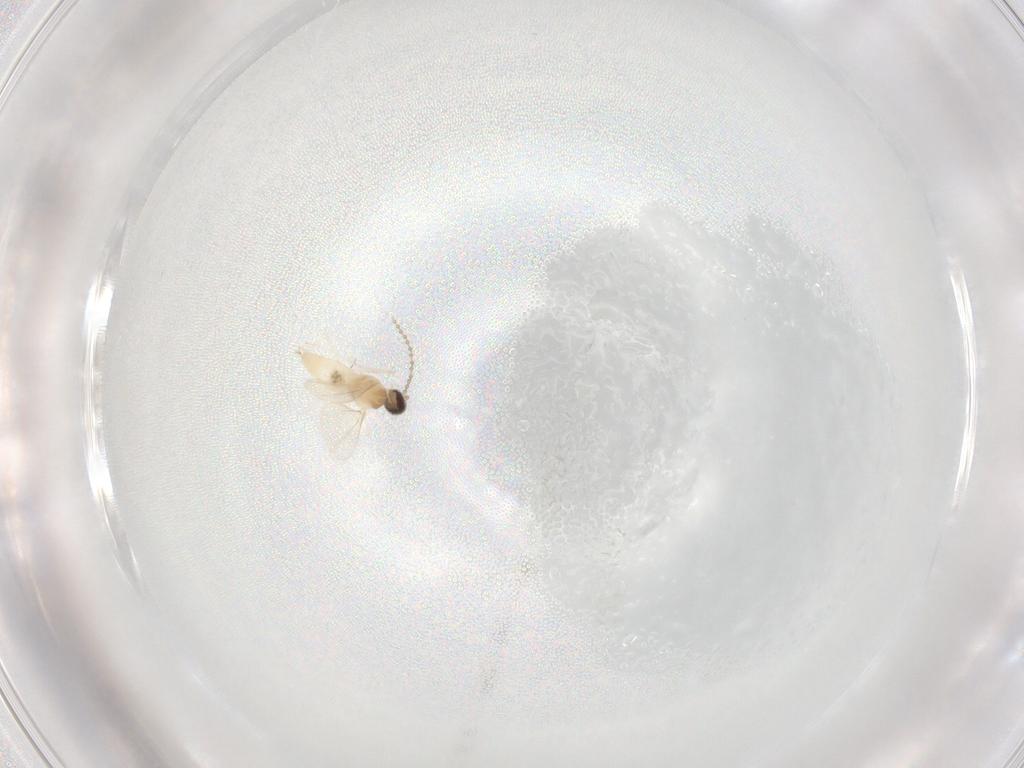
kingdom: Animalia
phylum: Arthropoda
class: Insecta
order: Diptera
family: Cecidomyiidae
